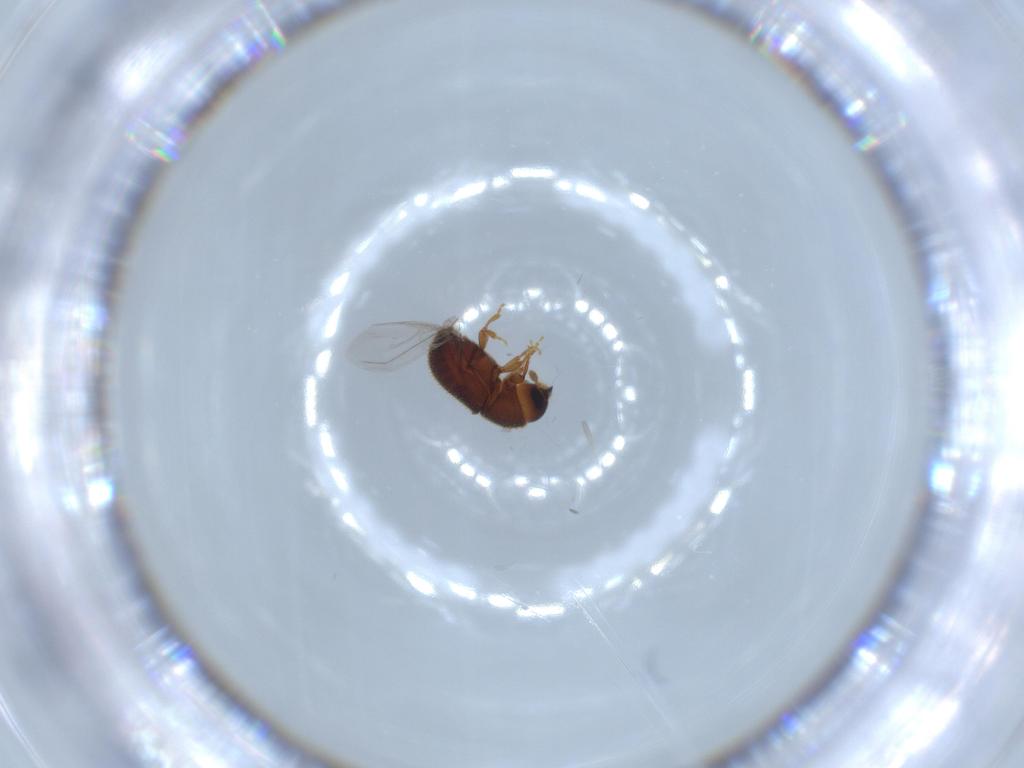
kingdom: Animalia
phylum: Arthropoda
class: Insecta
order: Coleoptera
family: Curculionidae
